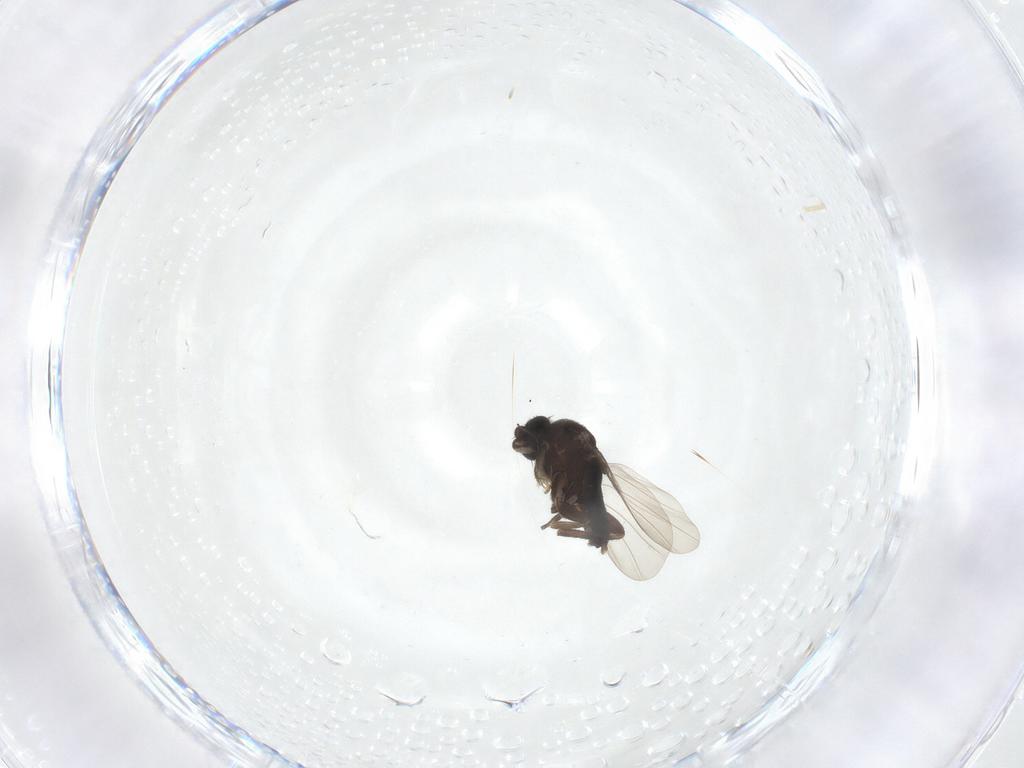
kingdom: Animalia
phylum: Arthropoda
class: Insecta
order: Diptera
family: Phoridae
